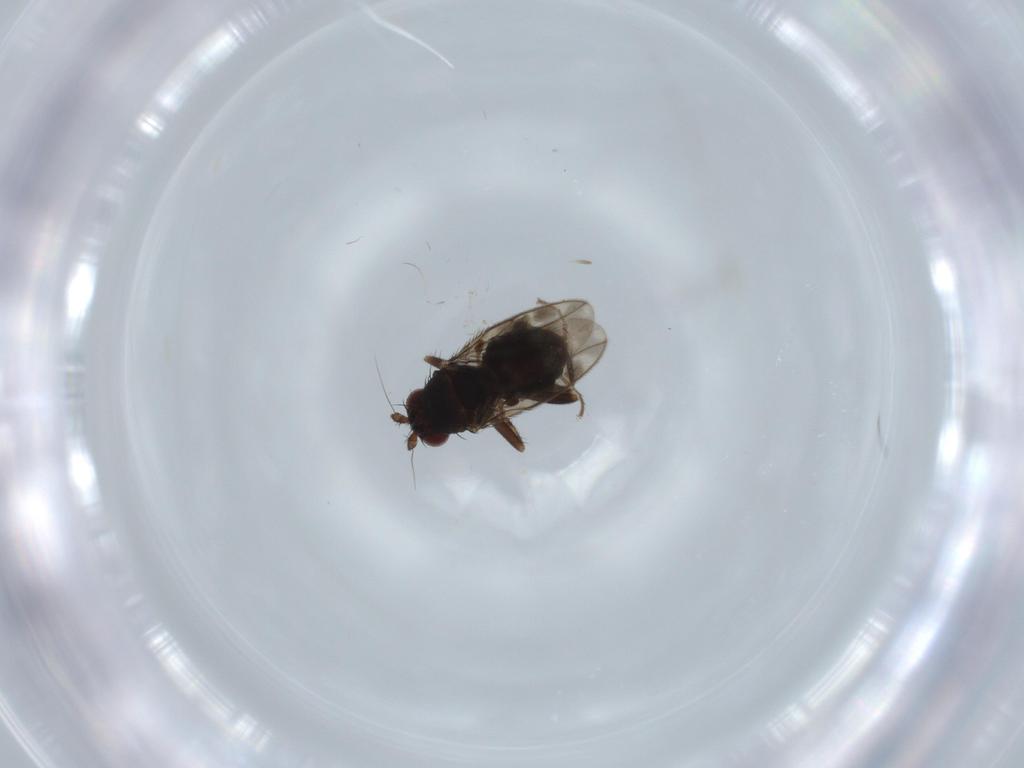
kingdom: Animalia
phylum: Arthropoda
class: Insecta
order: Diptera
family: Sphaeroceridae
